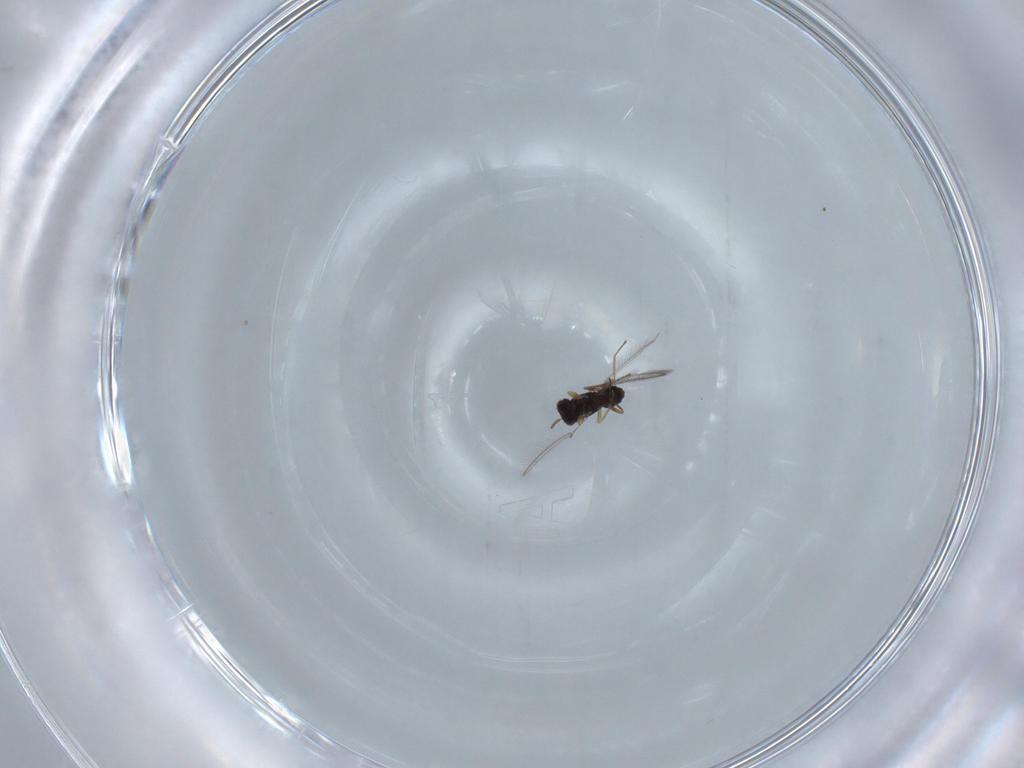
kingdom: Animalia
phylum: Arthropoda
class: Insecta
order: Hymenoptera
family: Mymaridae
